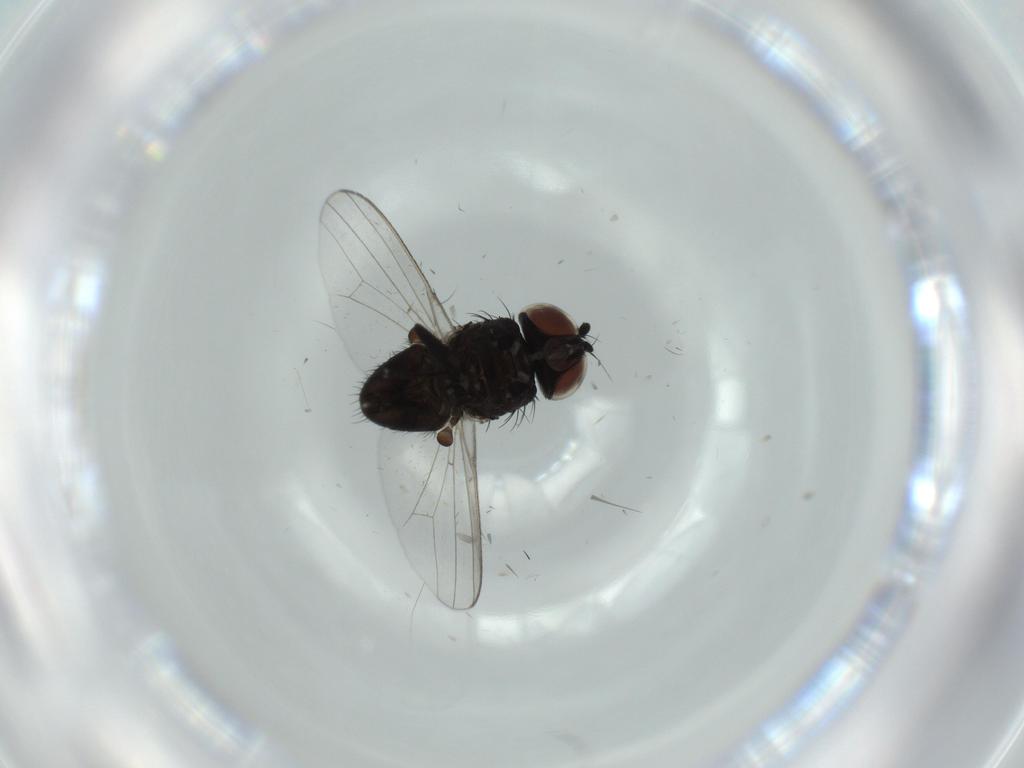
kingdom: Animalia
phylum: Arthropoda
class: Insecta
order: Diptera
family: Milichiidae
